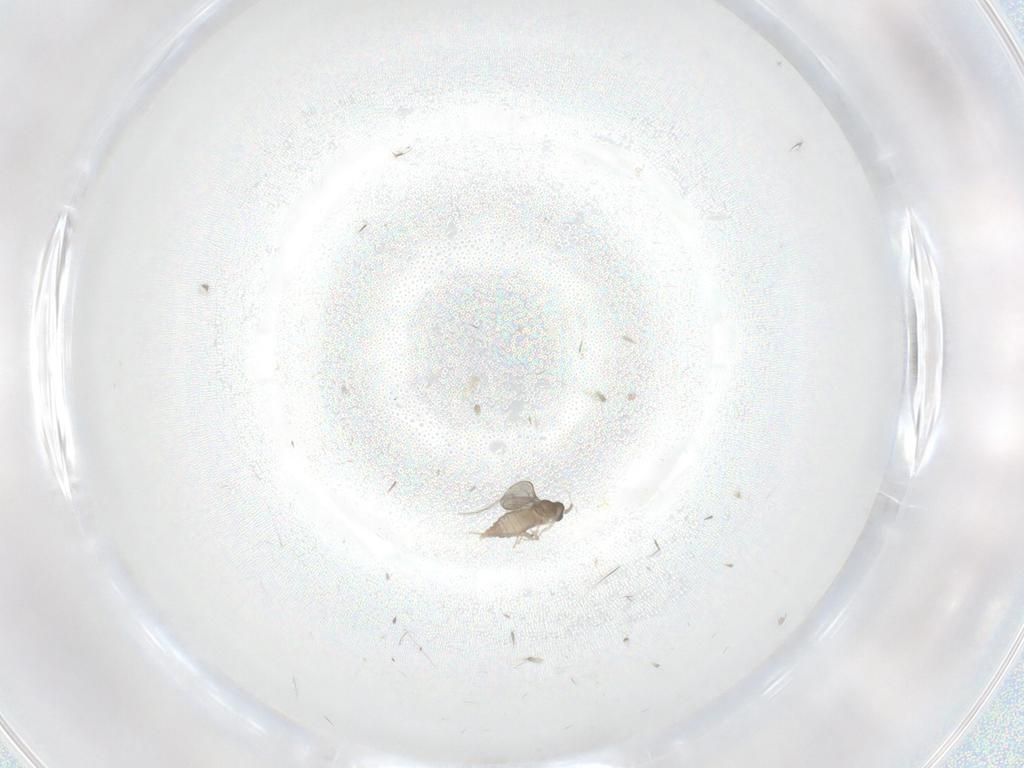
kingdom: Animalia
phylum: Arthropoda
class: Insecta
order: Diptera
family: Cecidomyiidae
